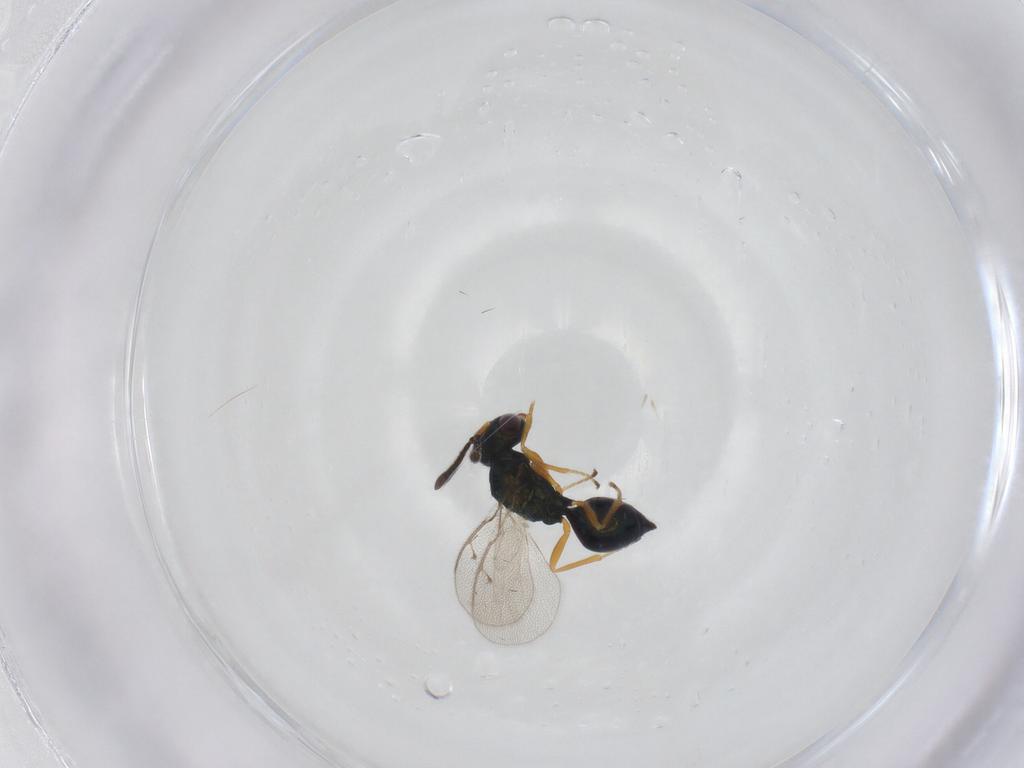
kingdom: Animalia
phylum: Arthropoda
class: Insecta
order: Hymenoptera
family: Pteromalidae
